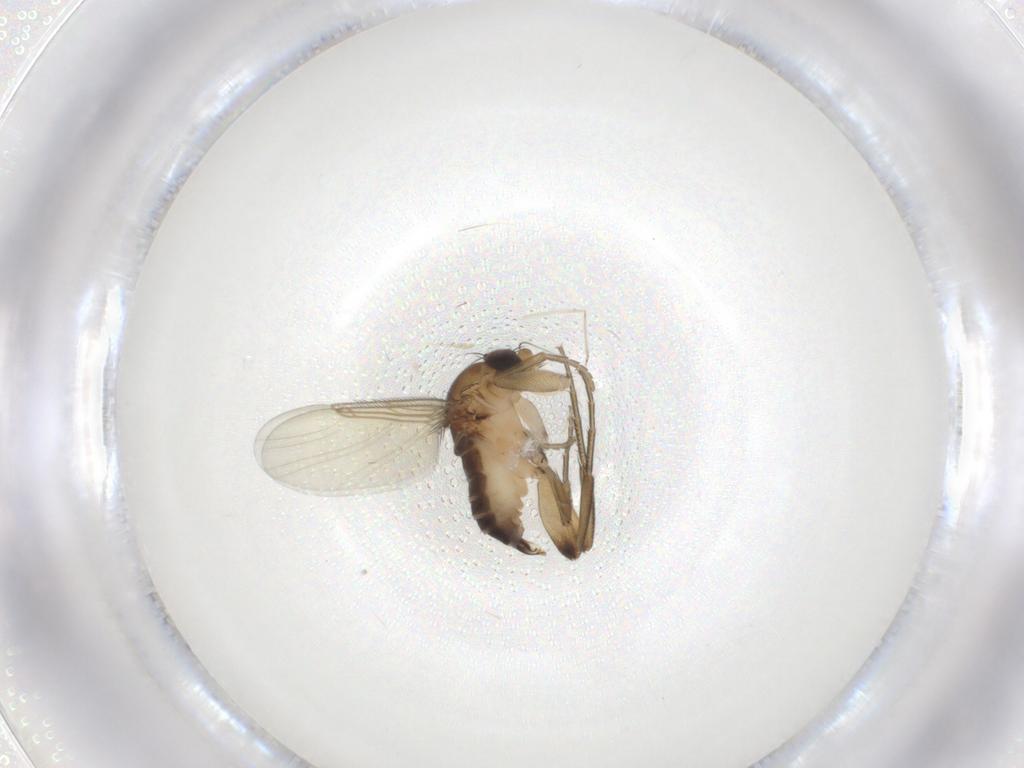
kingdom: Animalia
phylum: Arthropoda
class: Insecta
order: Diptera
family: Phoridae
